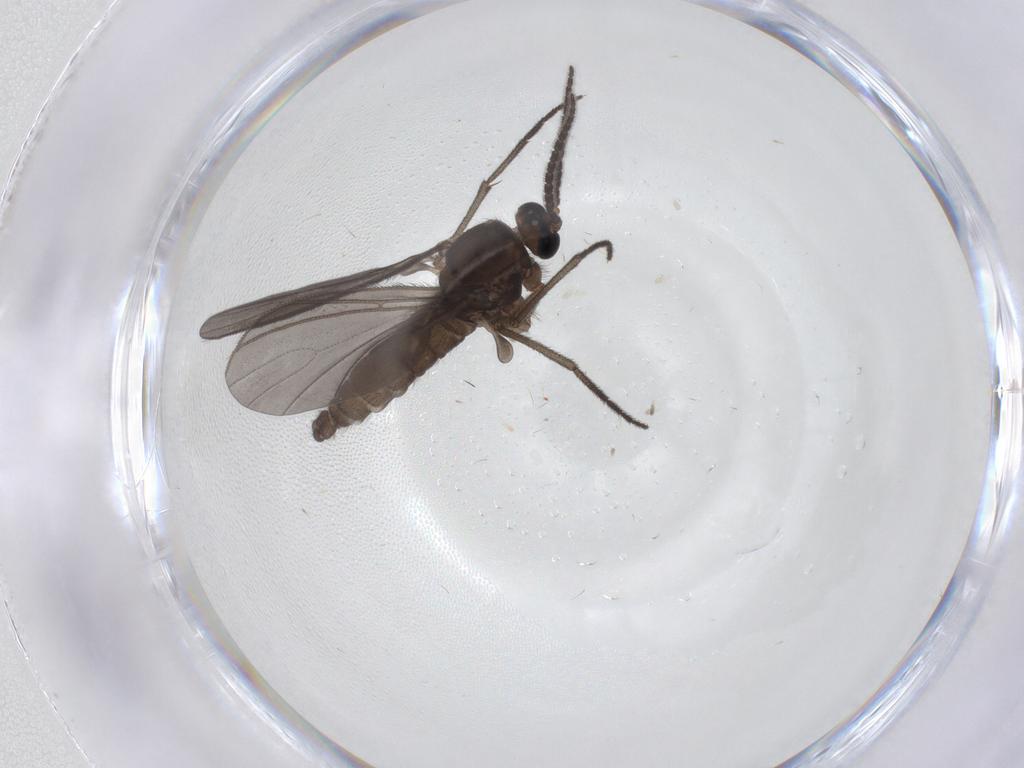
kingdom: Animalia
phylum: Arthropoda
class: Insecta
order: Diptera
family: Sciaridae
